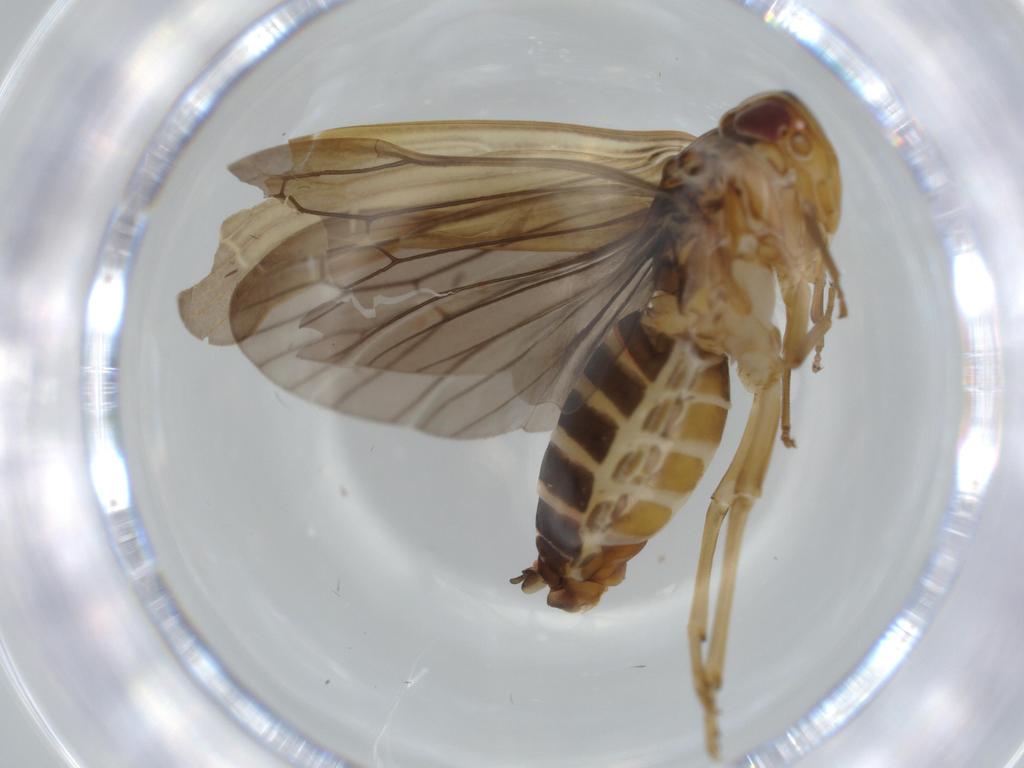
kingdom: Animalia
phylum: Arthropoda
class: Insecta
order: Hemiptera
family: Achilidae
